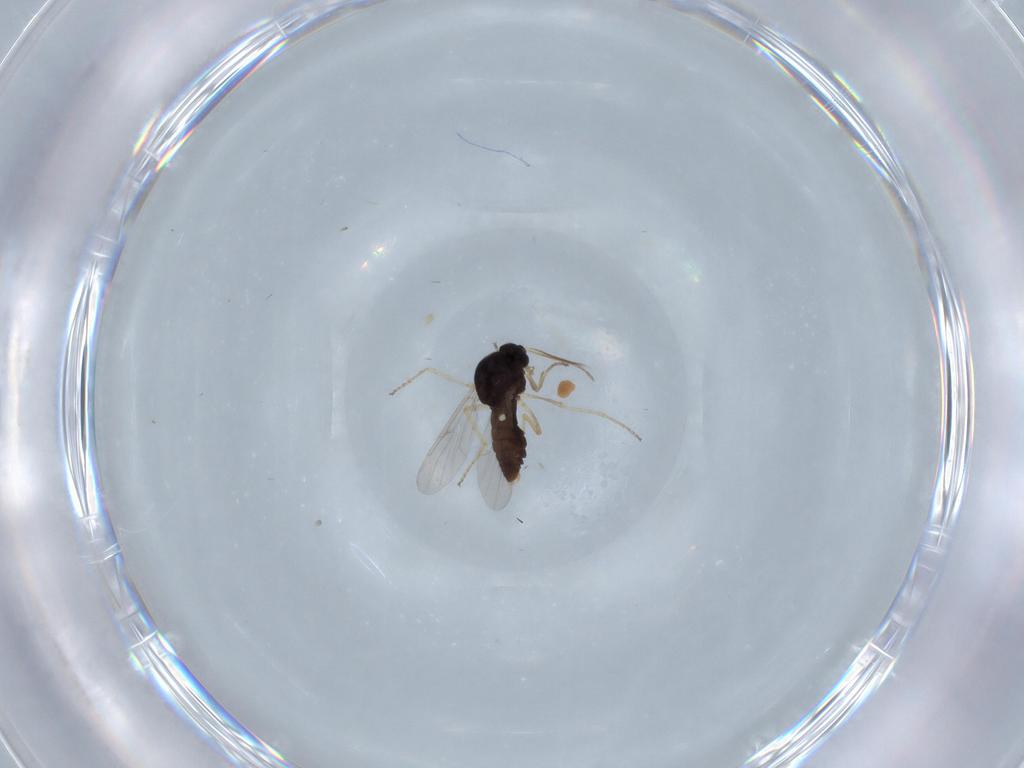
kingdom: Animalia
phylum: Arthropoda
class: Insecta
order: Diptera
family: Ceratopogonidae
